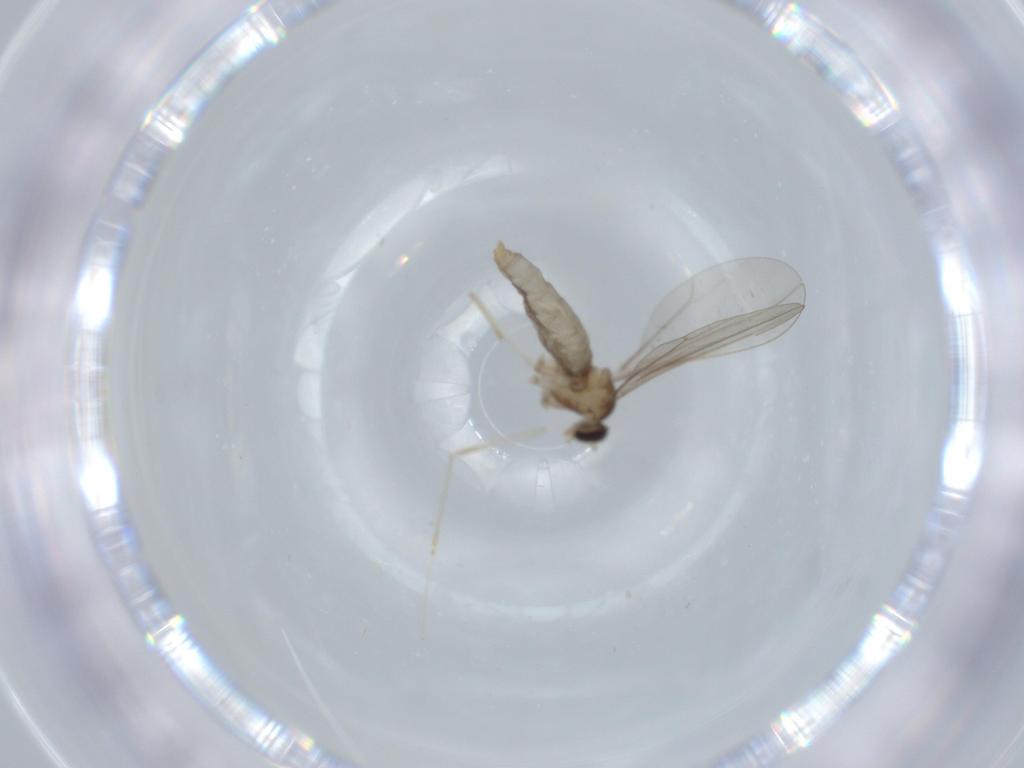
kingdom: Animalia
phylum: Arthropoda
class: Insecta
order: Diptera
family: Cecidomyiidae
